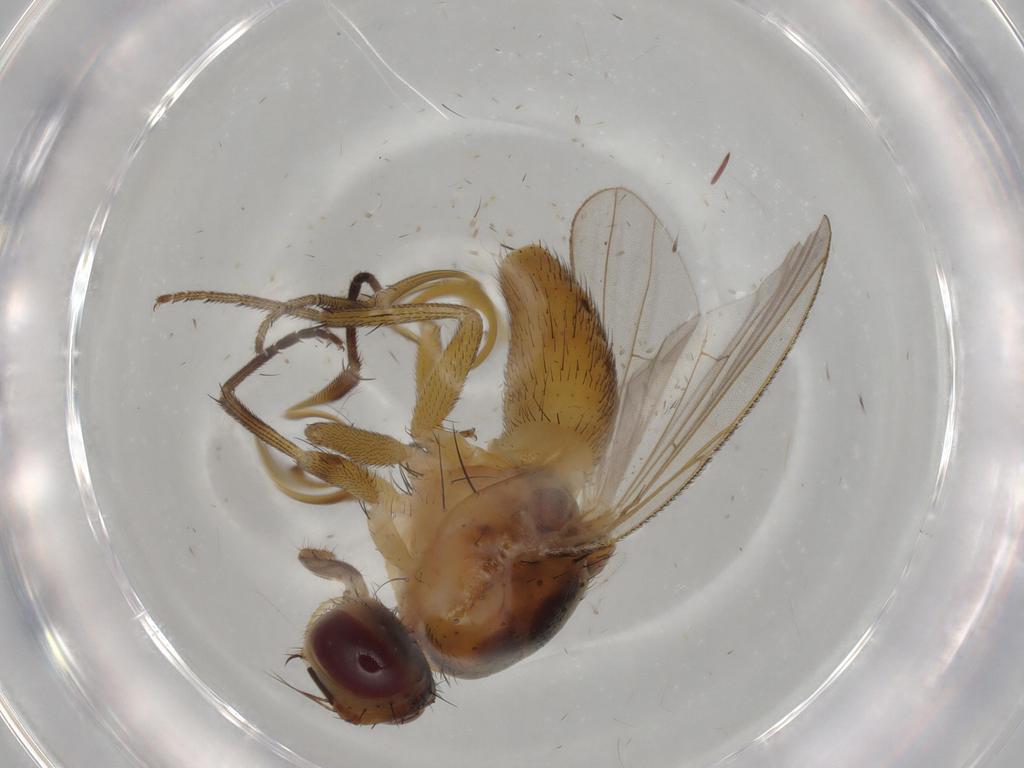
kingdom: Animalia
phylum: Arthropoda
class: Insecta
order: Diptera
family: Muscidae
